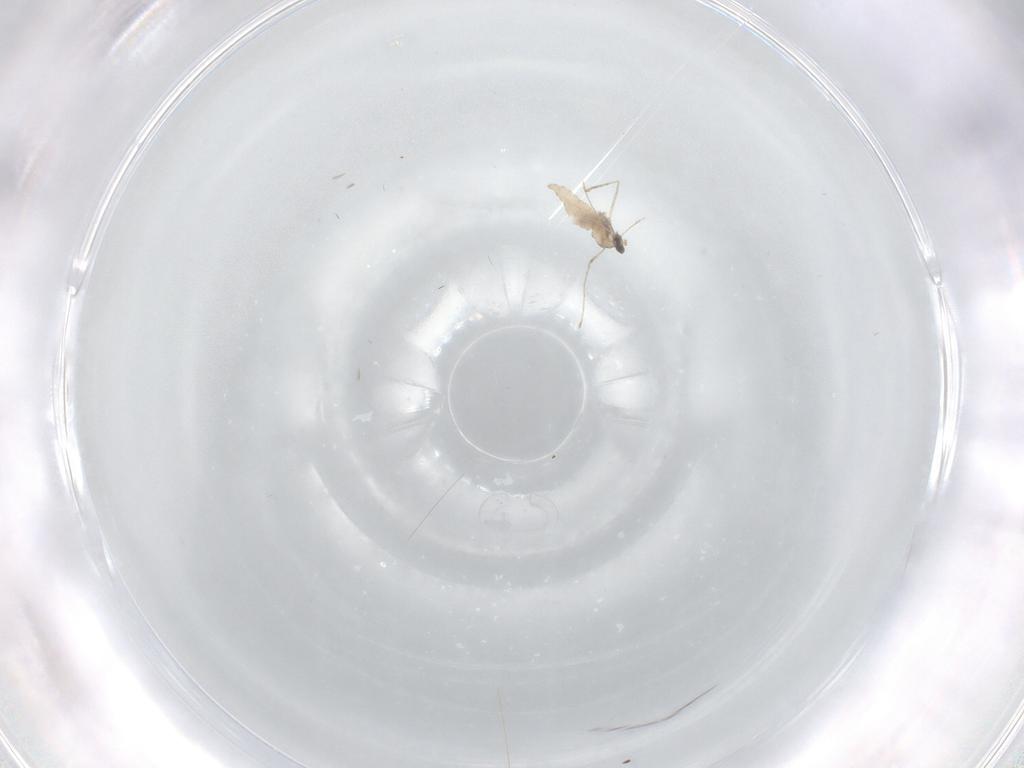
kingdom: Animalia
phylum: Arthropoda
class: Insecta
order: Diptera
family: Cecidomyiidae
